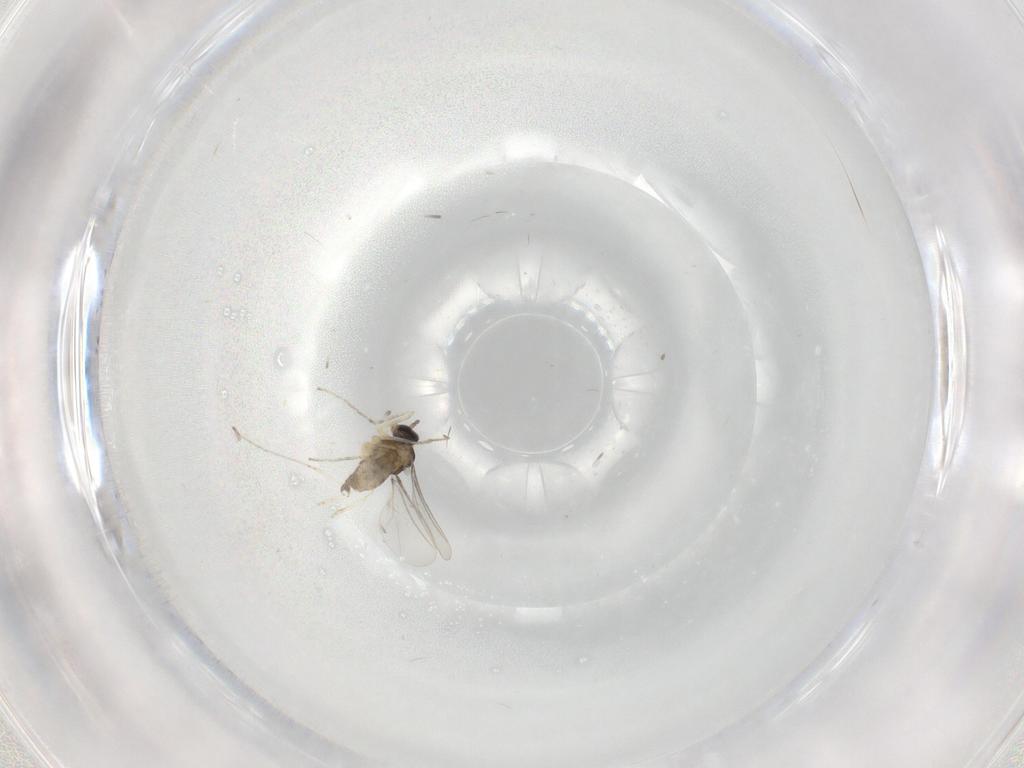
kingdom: Animalia
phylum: Arthropoda
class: Insecta
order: Diptera
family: Cecidomyiidae
